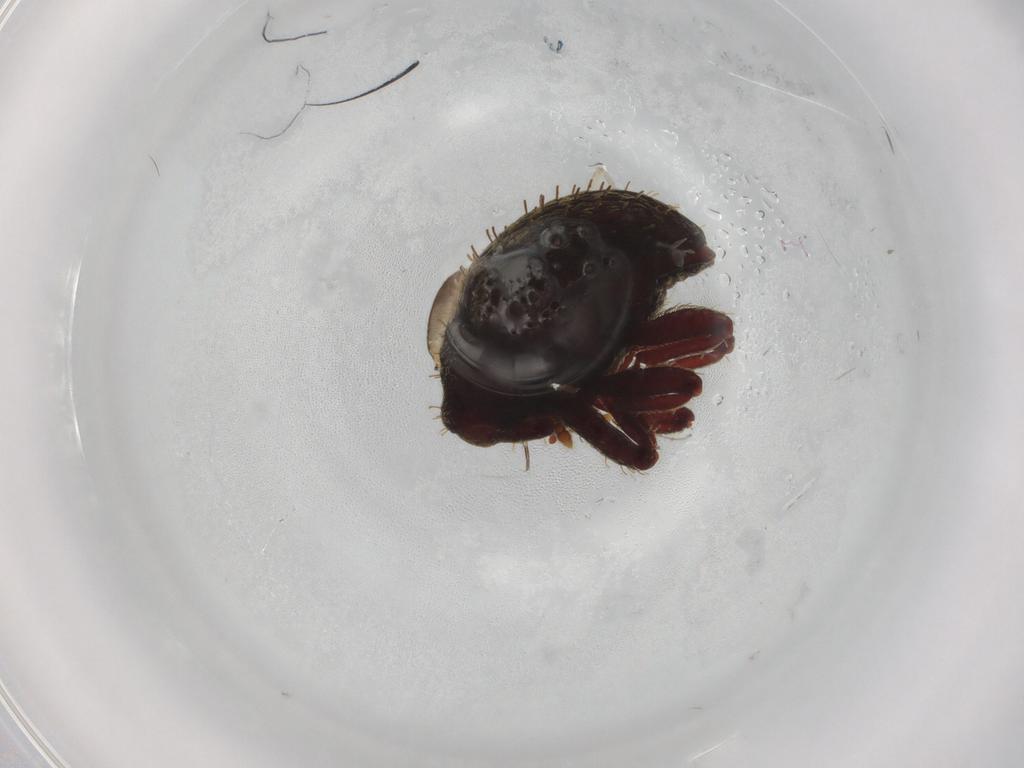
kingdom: Animalia
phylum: Arthropoda
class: Insecta
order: Coleoptera
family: Curculionidae
